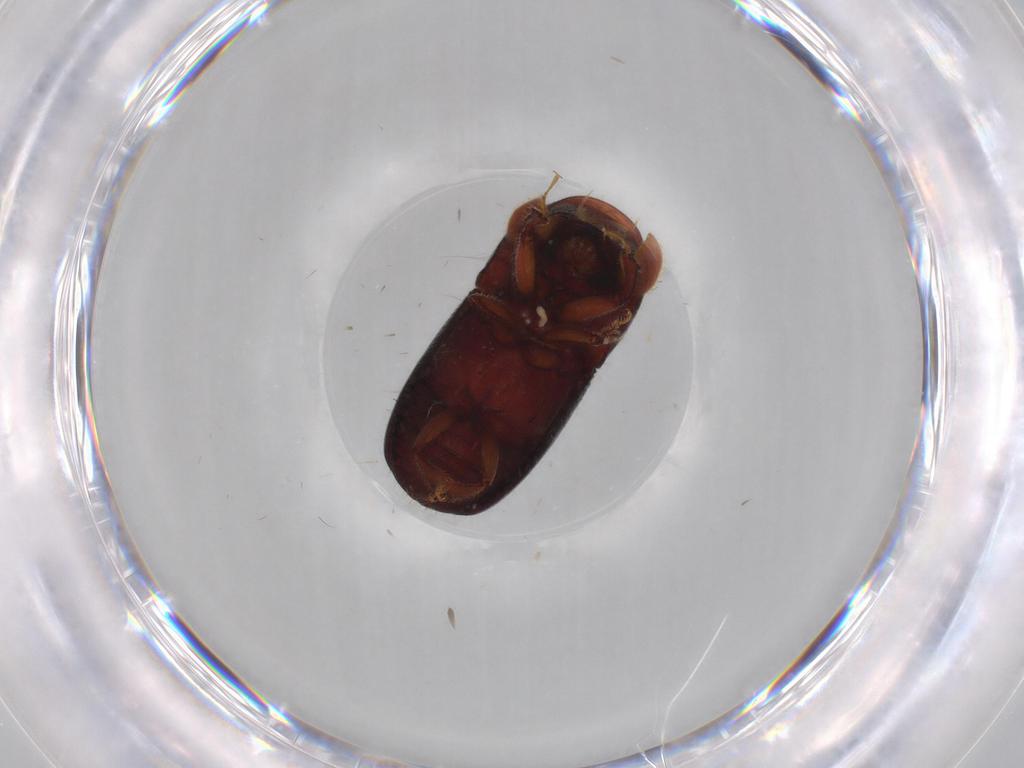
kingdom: Animalia
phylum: Arthropoda
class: Insecta
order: Coleoptera
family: Curculionidae
